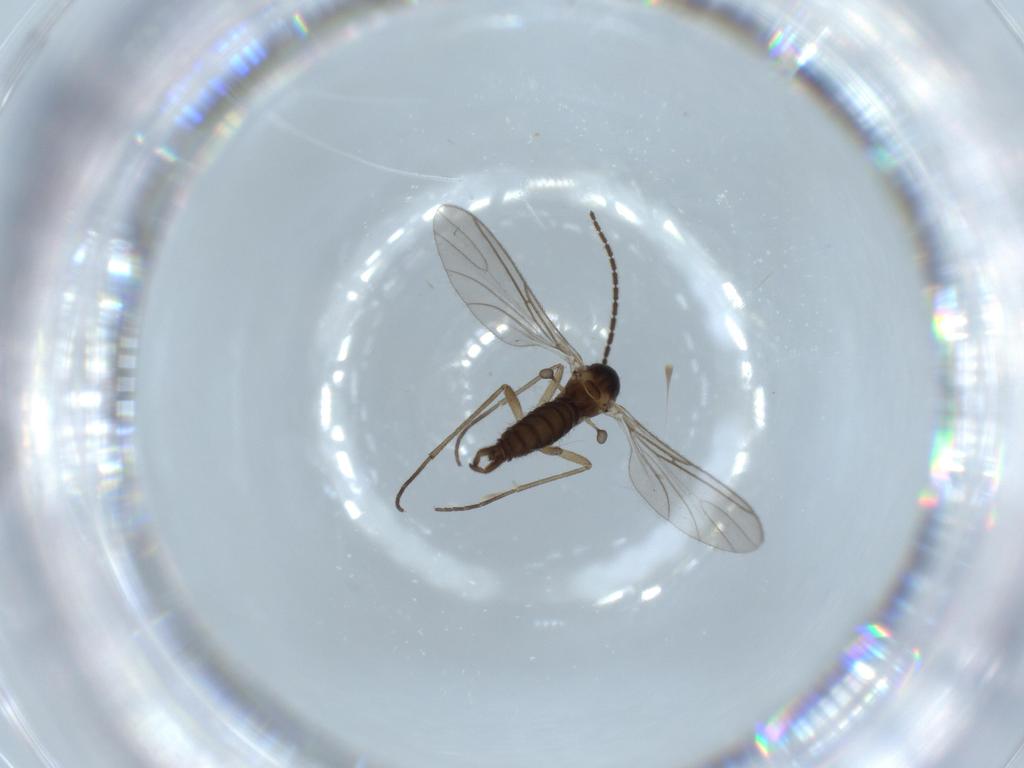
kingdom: Animalia
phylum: Arthropoda
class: Insecta
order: Diptera
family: Sciaridae
